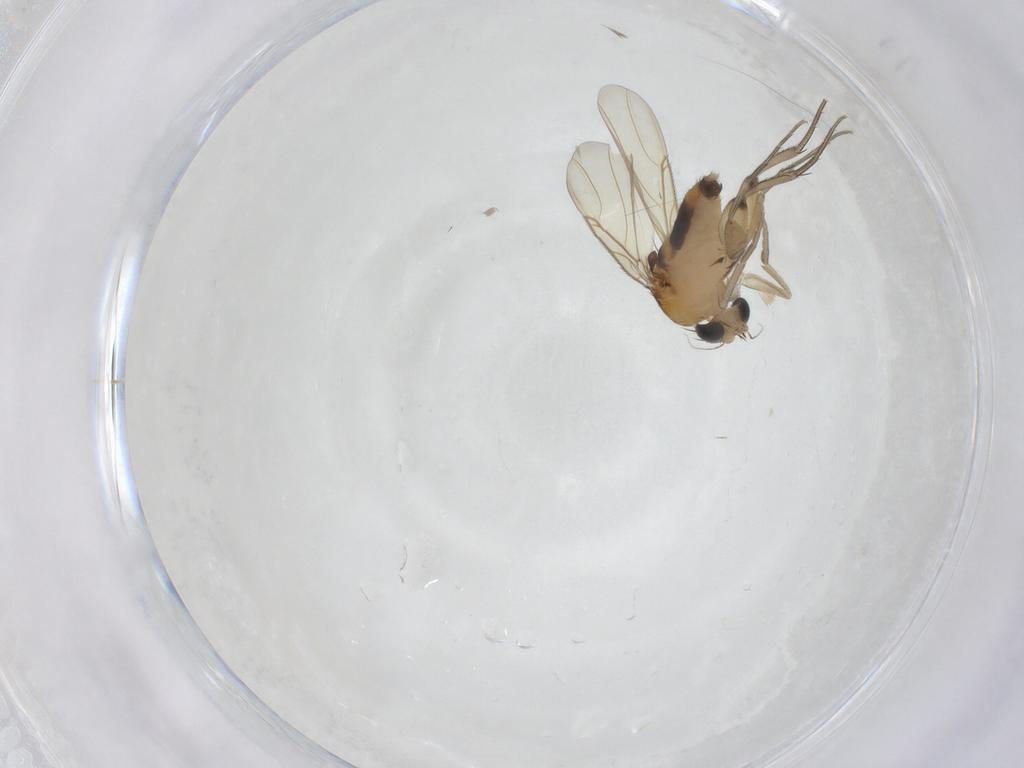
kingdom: Animalia
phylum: Arthropoda
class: Insecta
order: Diptera
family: Phoridae
